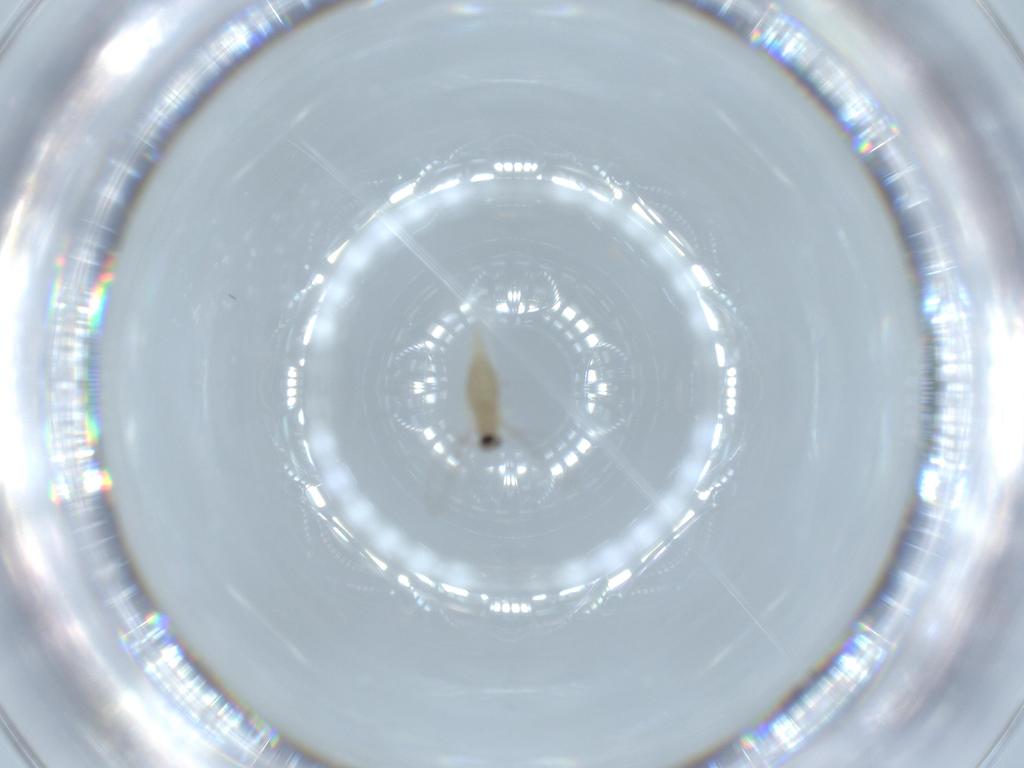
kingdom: Animalia
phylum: Arthropoda
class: Insecta
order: Diptera
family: Cecidomyiidae
